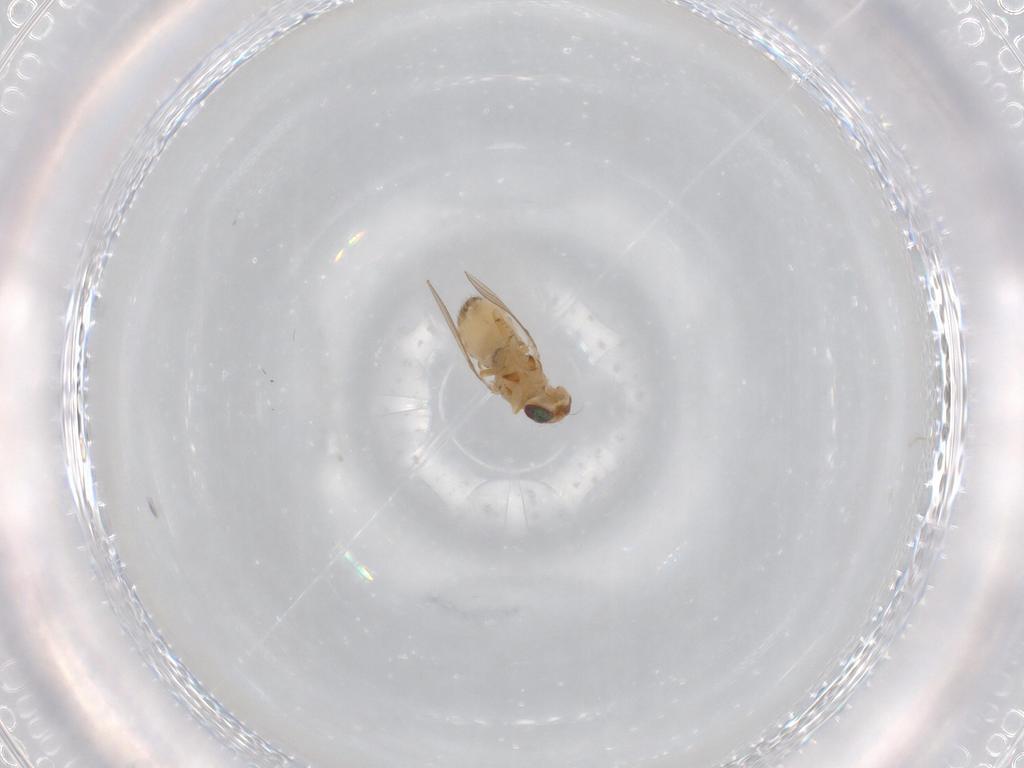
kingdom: Animalia
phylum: Arthropoda
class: Insecta
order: Diptera
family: Chyromyidae
